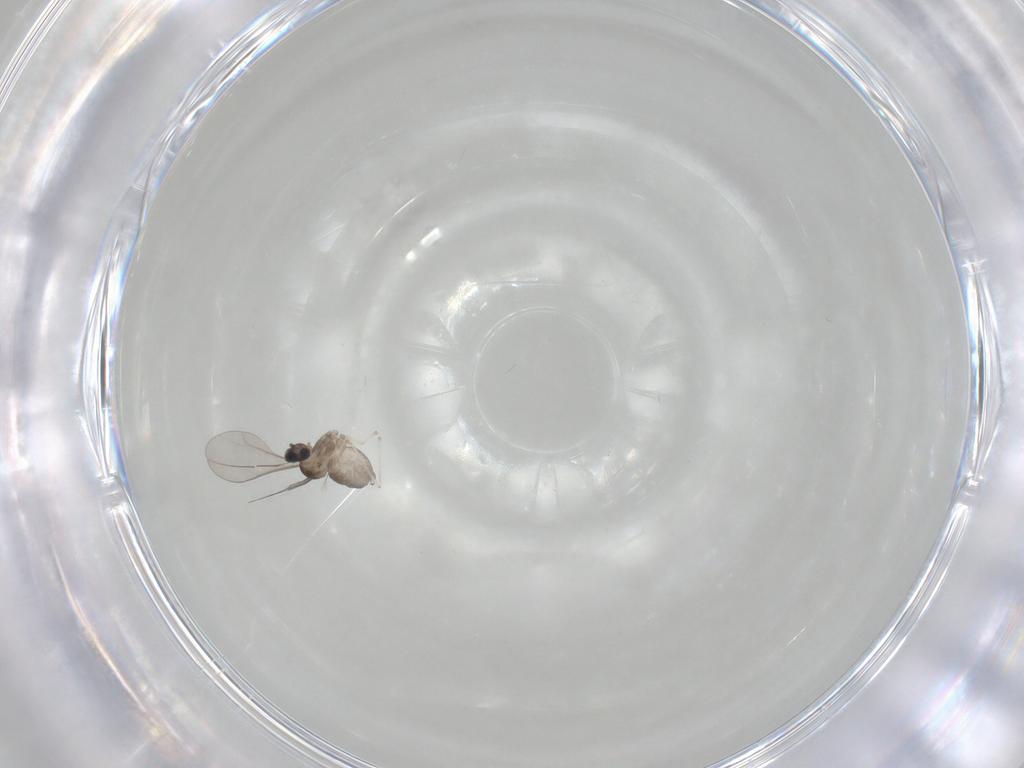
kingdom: Animalia
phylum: Arthropoda
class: Insecta
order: Diptera
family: Cecidomyiidae
